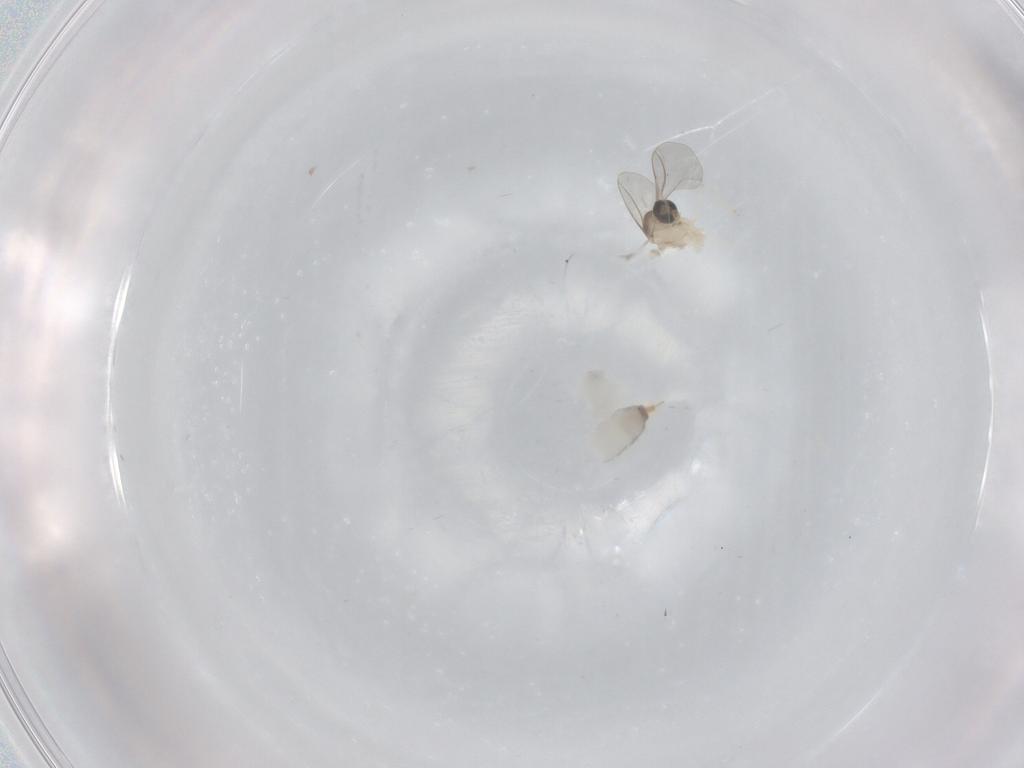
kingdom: Animalia
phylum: Arthropoda
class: Insecta
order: Diptera
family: Cecidomyiidae
